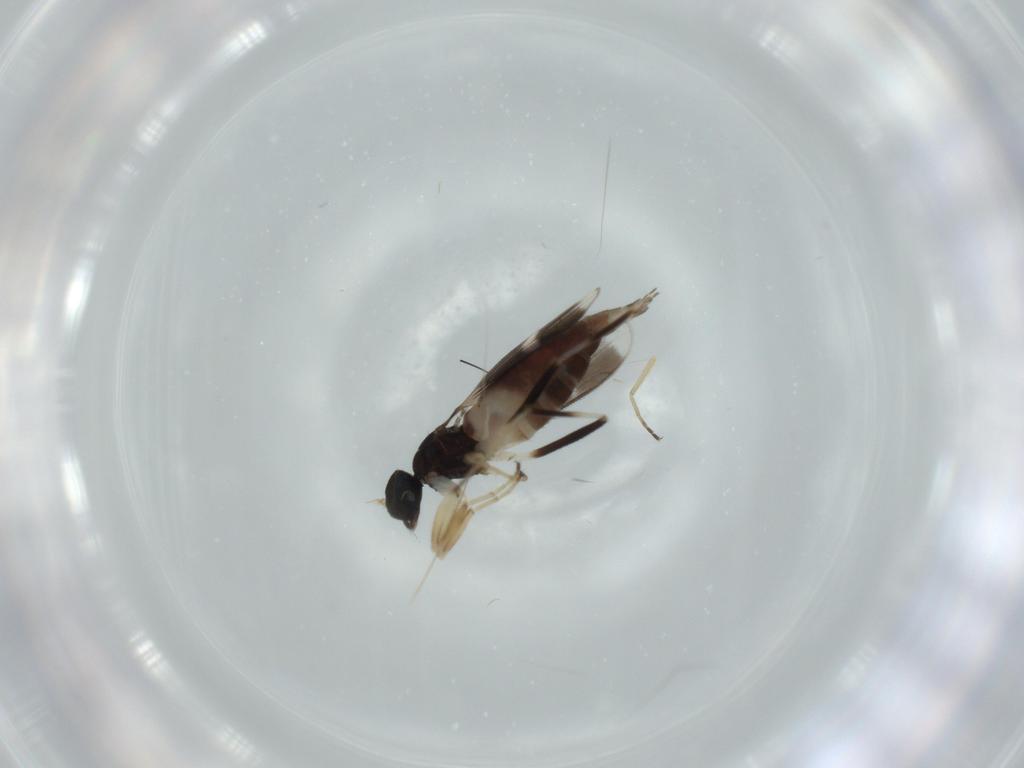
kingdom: Animalia
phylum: Arthropoda
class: Insecta
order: Diptera
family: Hybotidae
